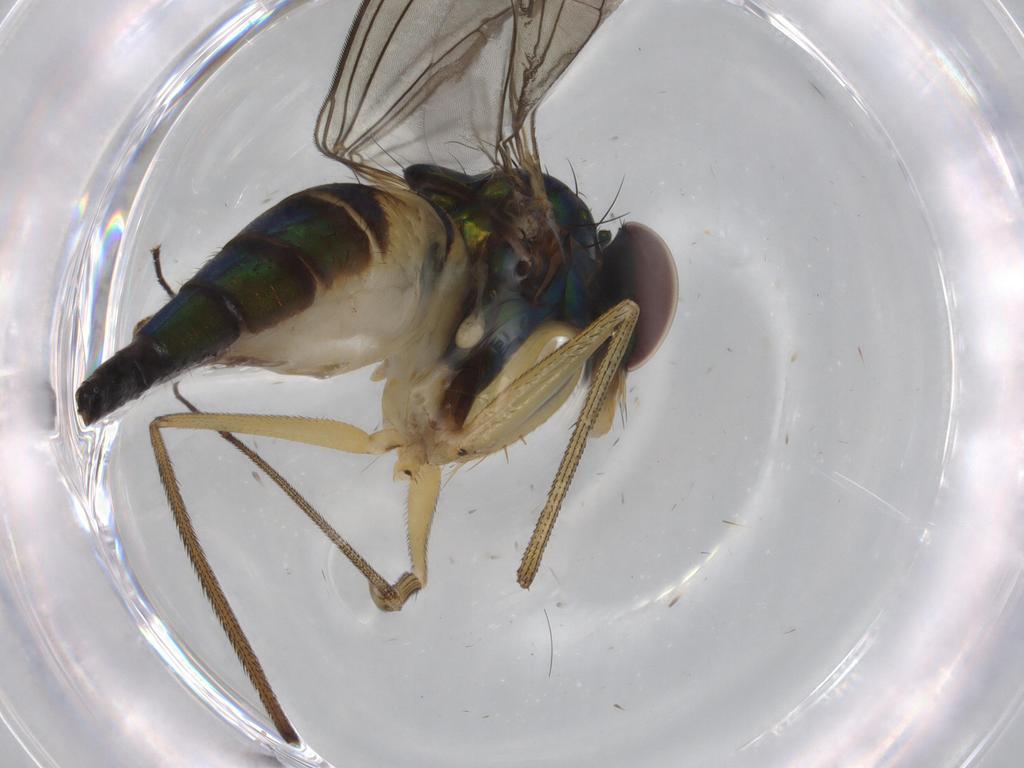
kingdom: Animalia
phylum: Arthropoda
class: Insecta
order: Diptera
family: Dolichopodidae
